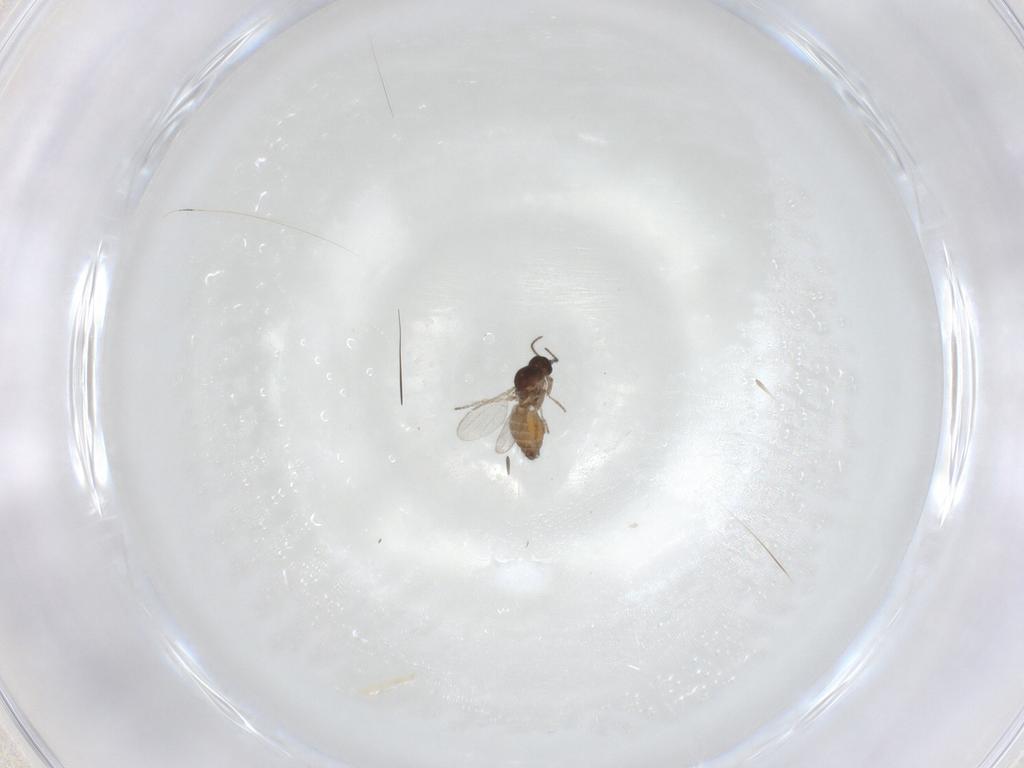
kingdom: Animalia
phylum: Arthropoda
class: Insecta
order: Diptera
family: Ceratopogonidae
